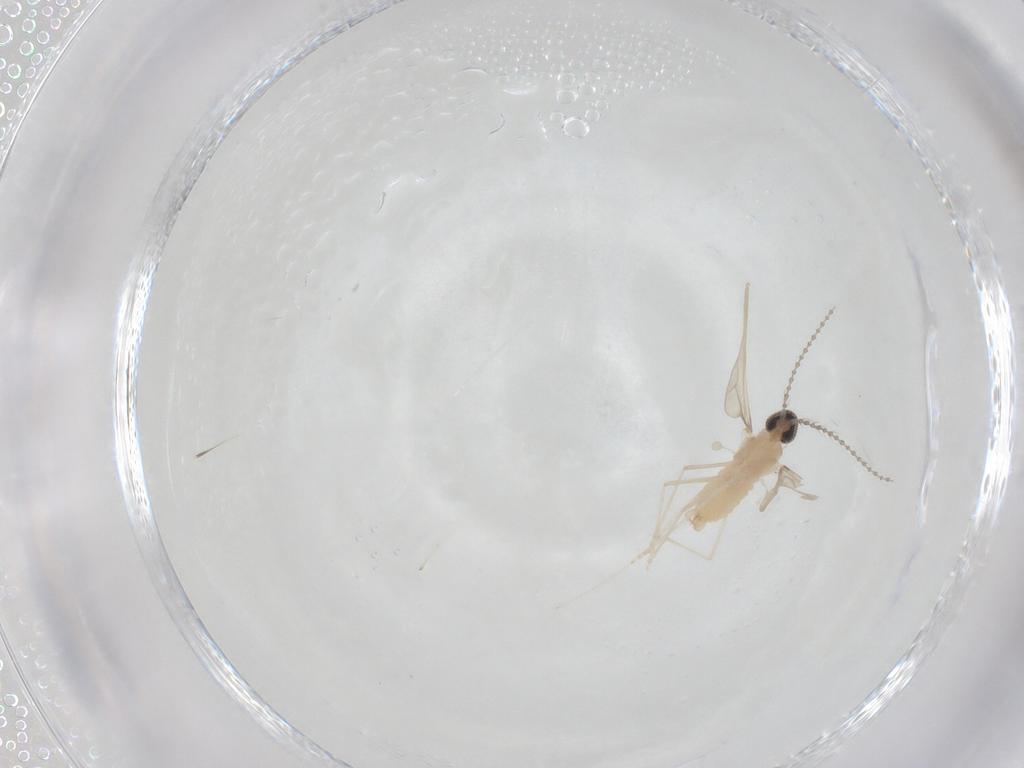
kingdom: Animalia
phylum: Arthropoda
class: Insecta
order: Diptera
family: Cecidomyiidae
